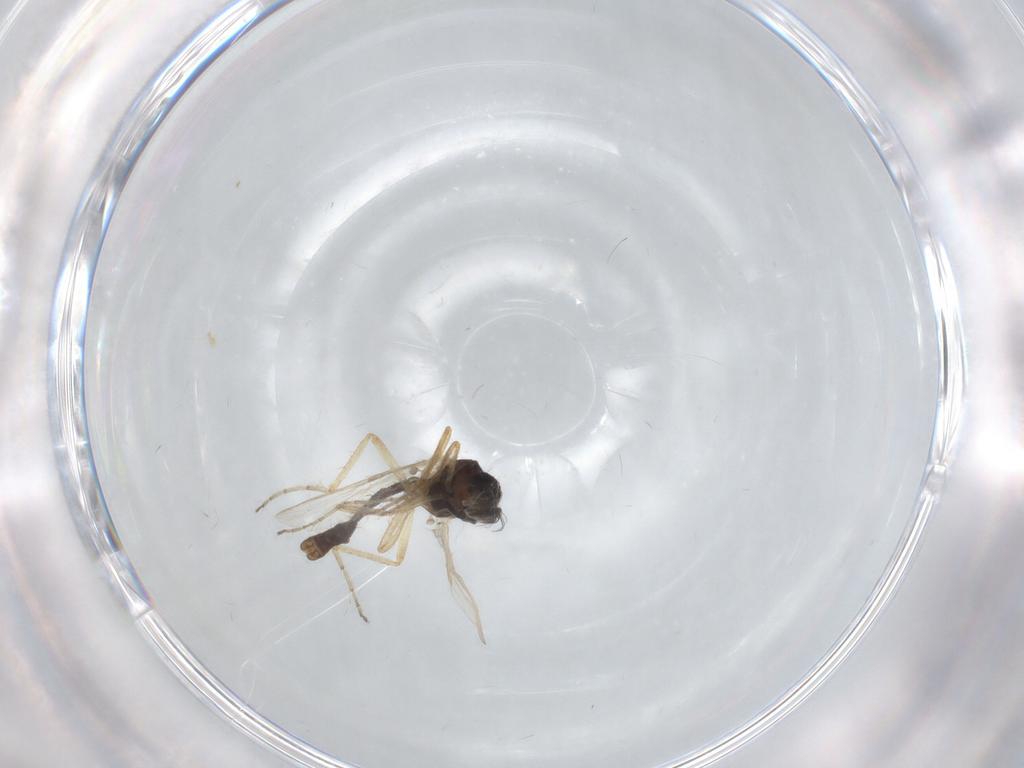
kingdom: Animalia
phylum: Arthropoda
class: Insecta
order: Diptera
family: Ceratopogonidae
